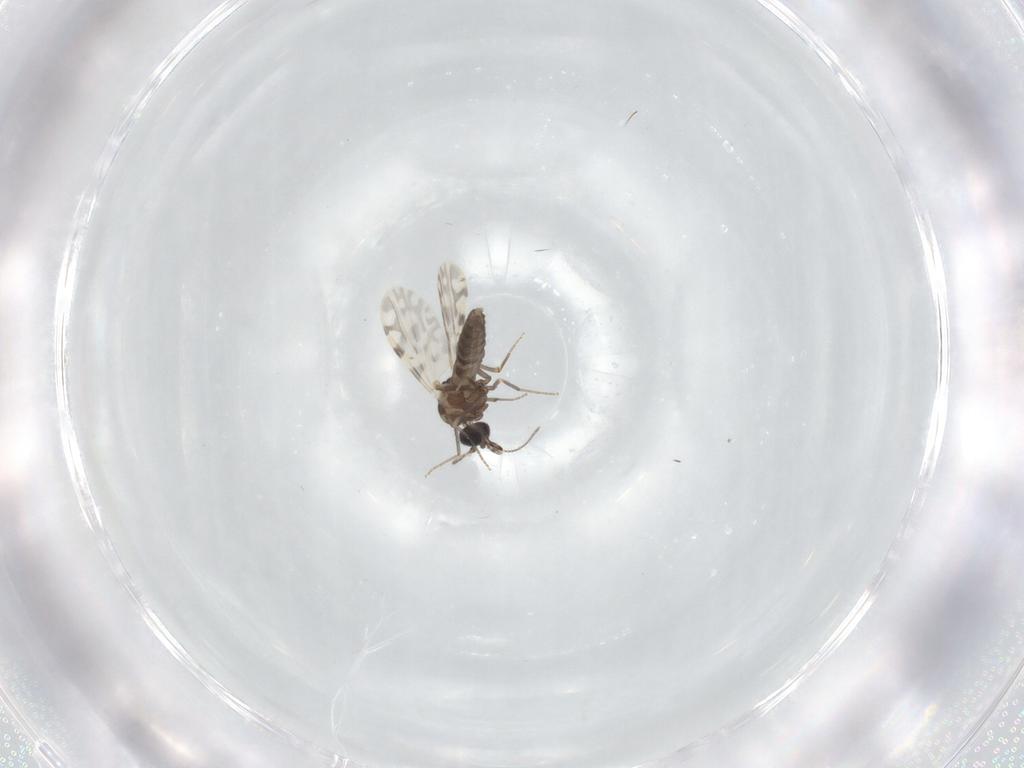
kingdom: Animalia
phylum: Arthropoda
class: Insecta
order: Diptera
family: Ceratopogonidae
